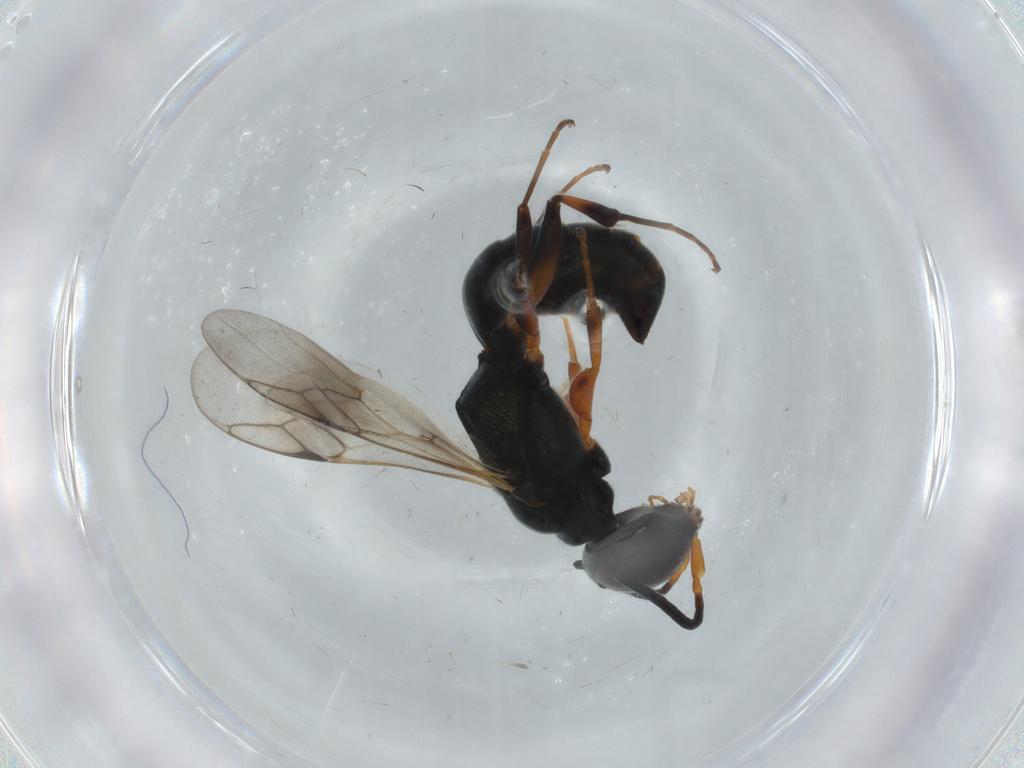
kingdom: Animalia
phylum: Arthropoda
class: Insecta
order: Hymenoptera
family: Crabronidae
